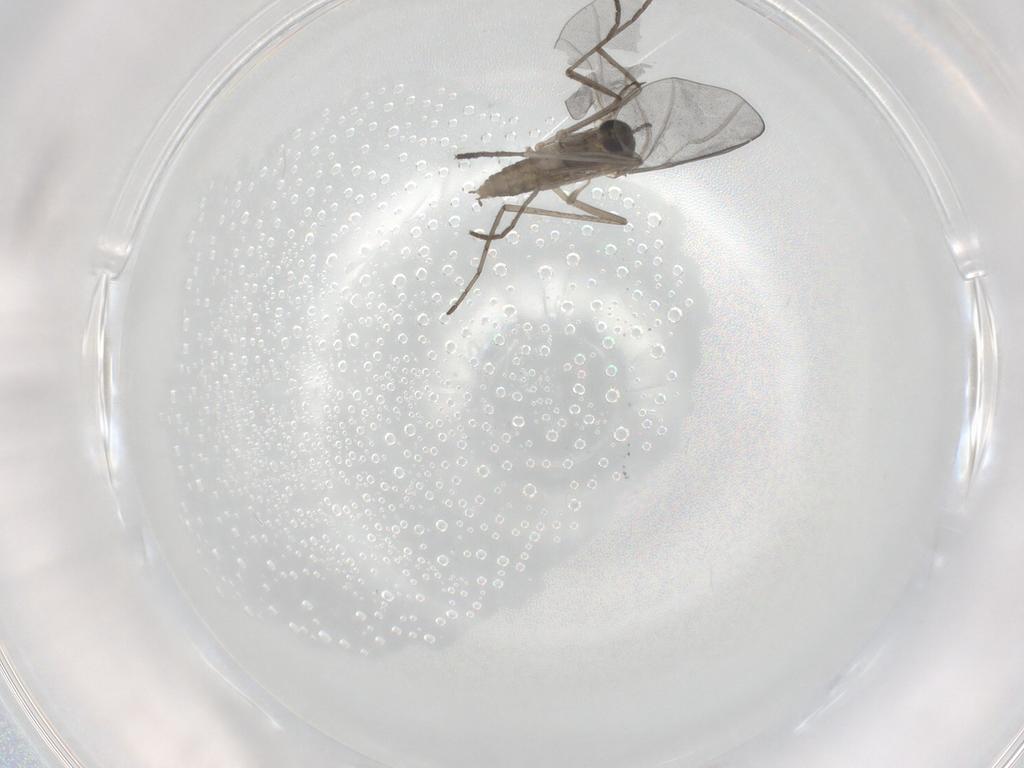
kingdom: Animalia
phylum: Arthropoda
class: Insecta
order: Diptera
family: Cecidomyiidae
